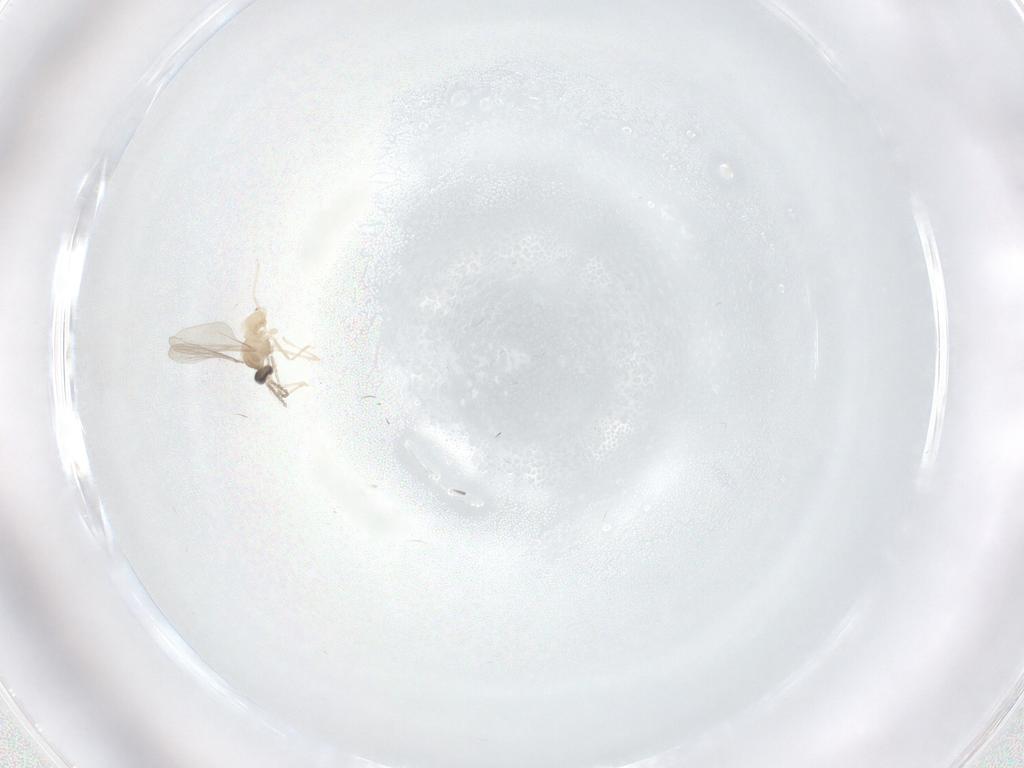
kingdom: Animalia
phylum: Arthropoda
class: Insecta
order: Diptera
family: Cecidomyiidae
